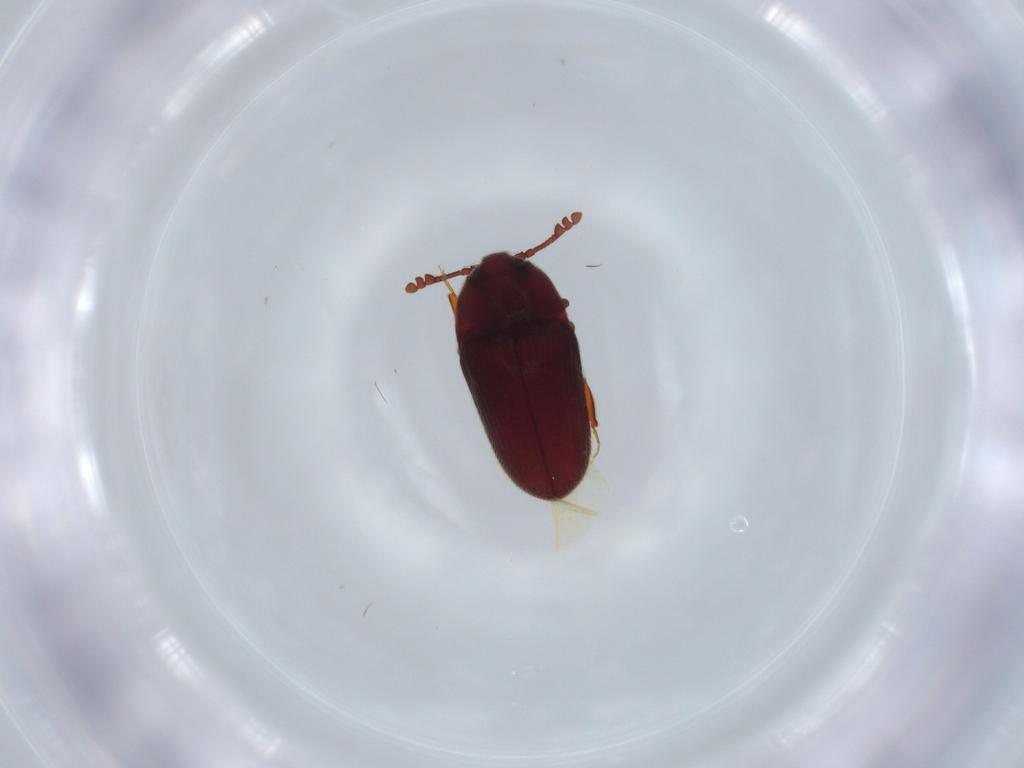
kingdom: Animalia
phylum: Arthropoda
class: Insecta
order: Coleoptera
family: Throscidae
